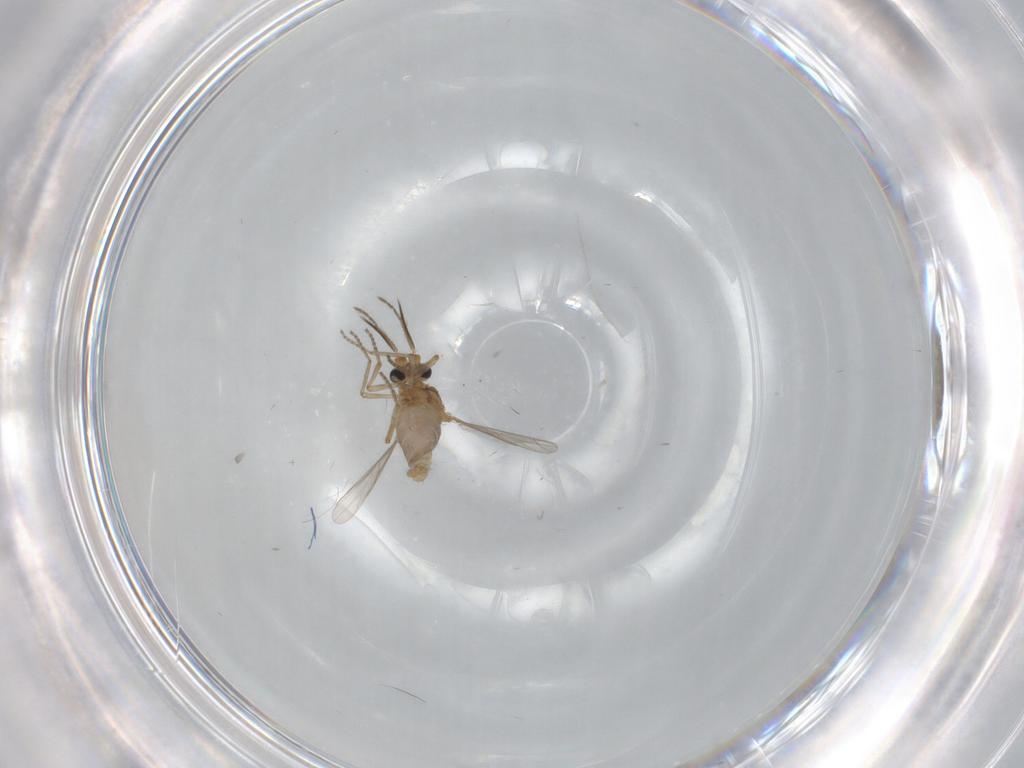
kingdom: Animalia
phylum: Arthropoda
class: Insecta
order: Diptera
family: Ceratopogonidae
